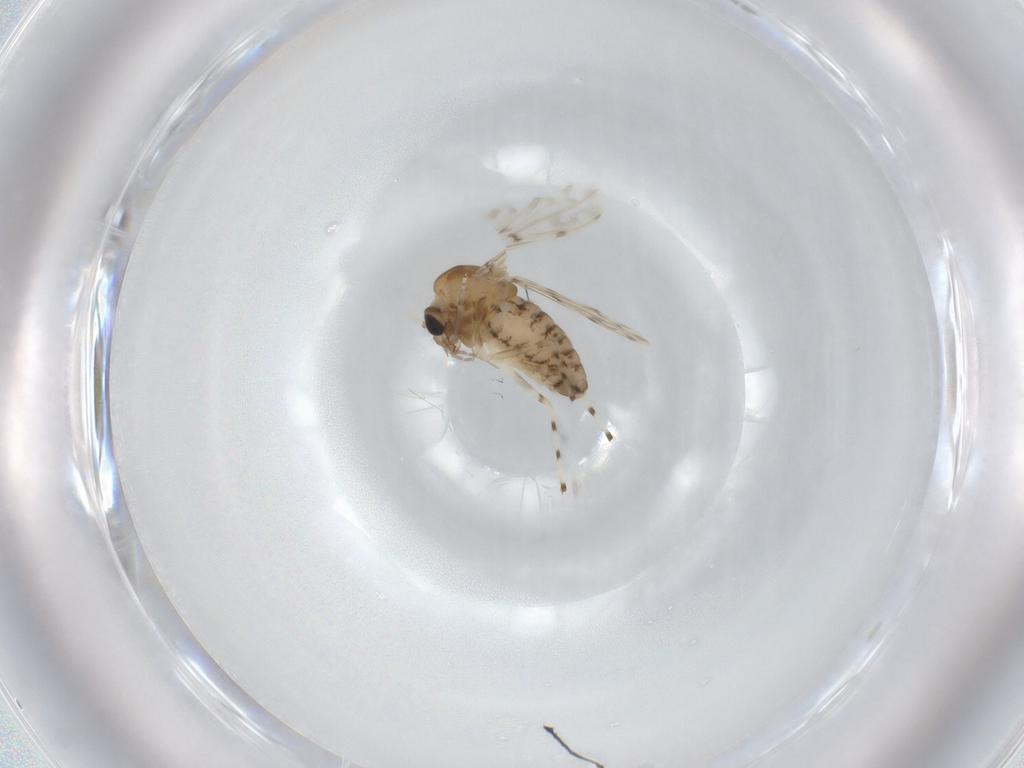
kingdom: Animalia
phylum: Arthropoda
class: Insecta
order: Diptera
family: Chironomidae
